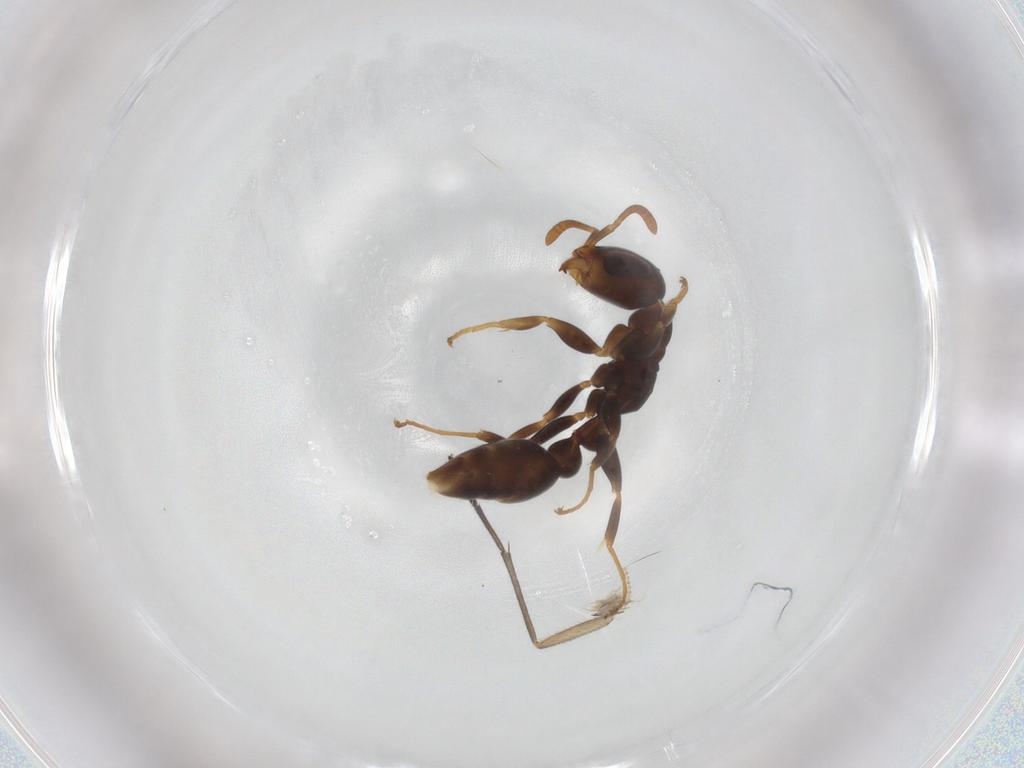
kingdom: Animalia
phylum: Arthropoda
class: Insecta
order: Hymenoptera
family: Formicidae
